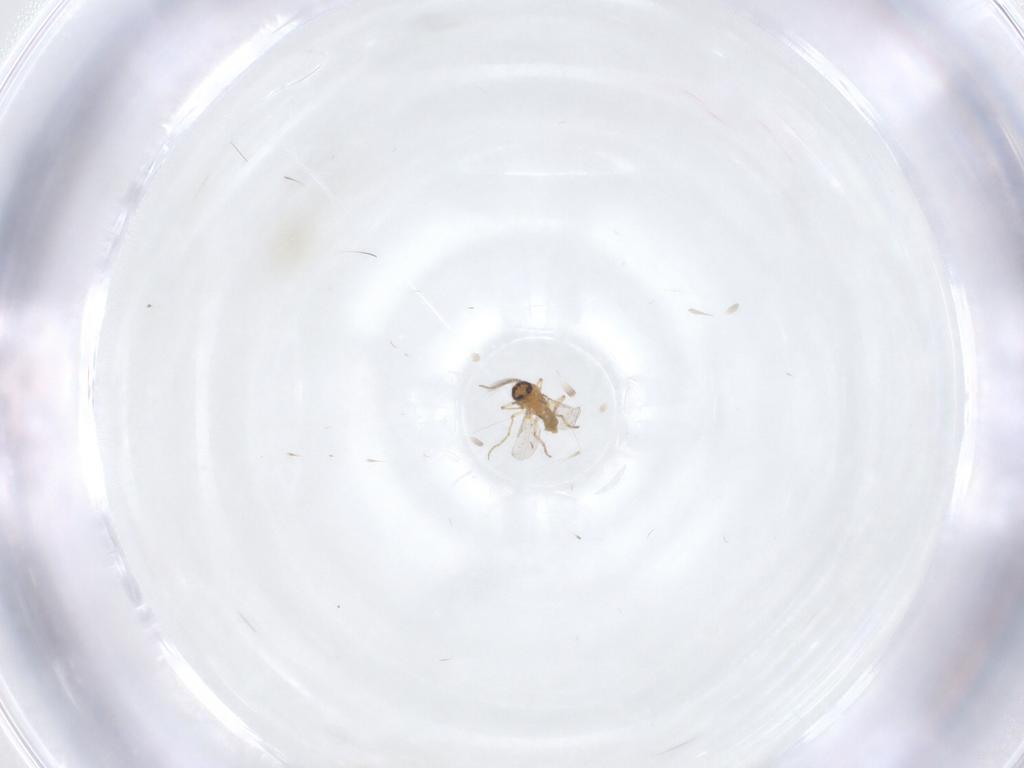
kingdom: Animalia
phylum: Arthropoda
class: Insecta
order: Diptera
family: Ceratopogonidae
